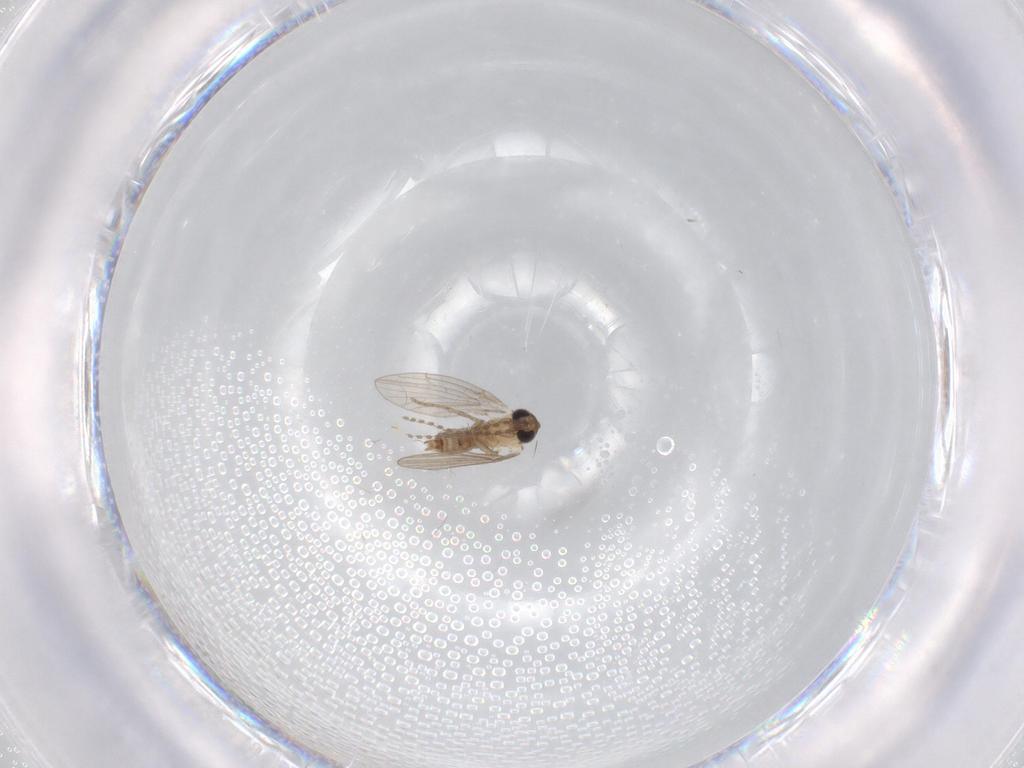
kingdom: Animalia
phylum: Arthropoda
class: Insecta
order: Diptera
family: Psychodidae
